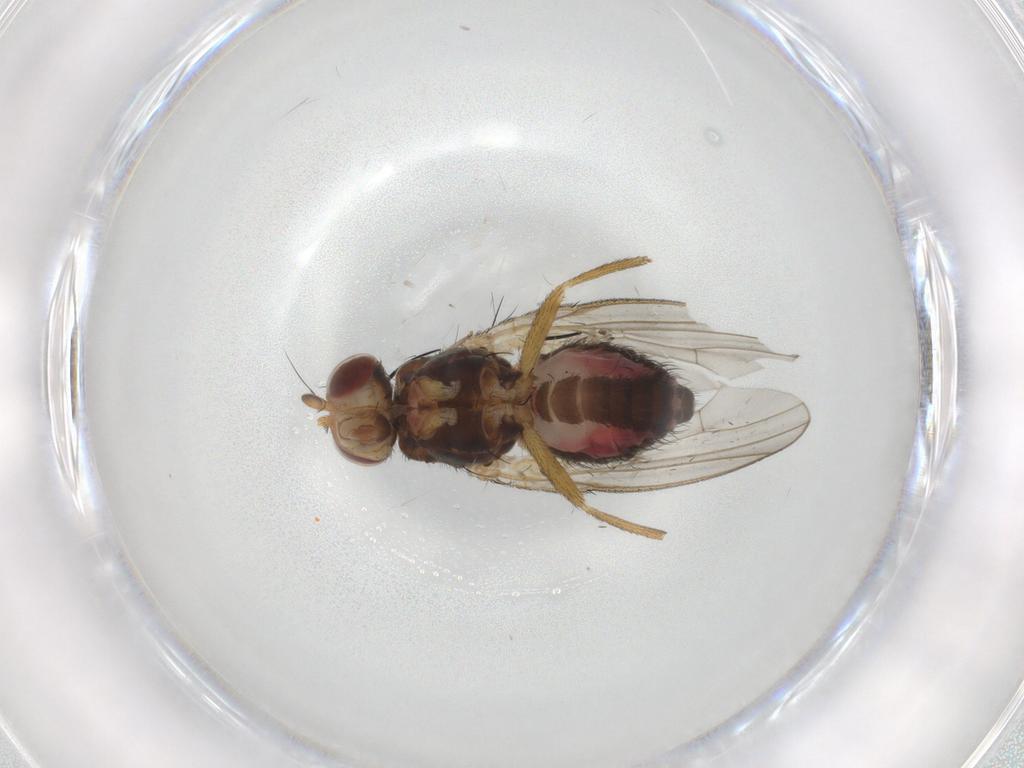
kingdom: Animalia
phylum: Arthropoda
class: Insecta
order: Diptera
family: Heleomyzidae
